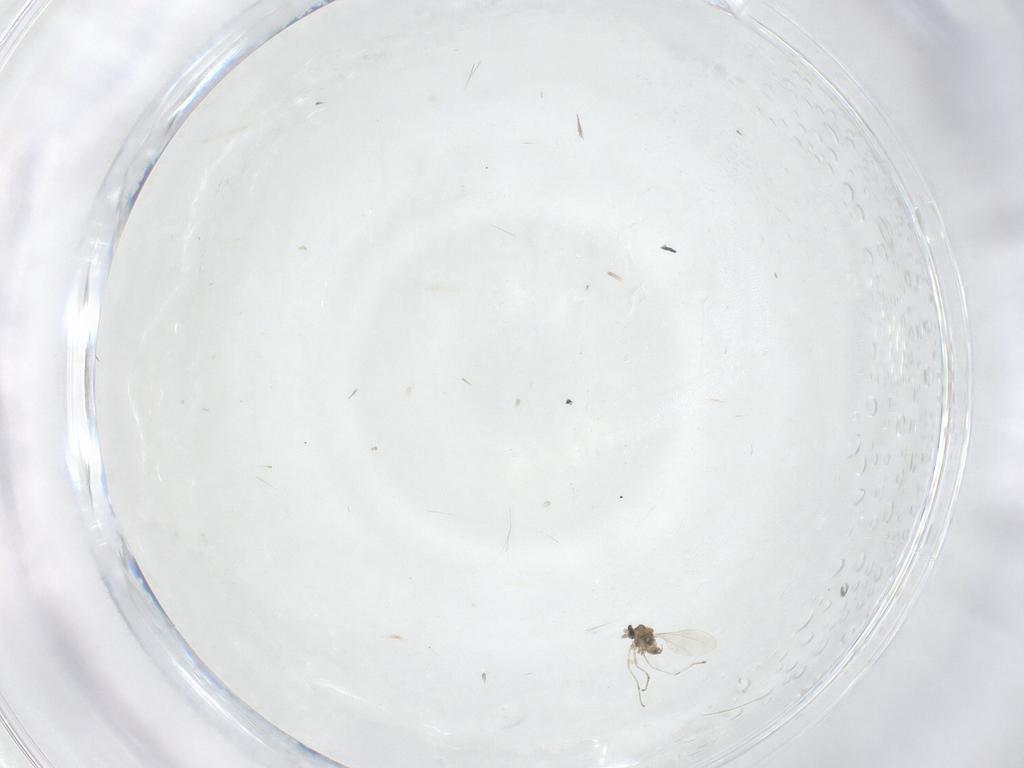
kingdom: Animalia
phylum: Arthropoda
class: Insecta
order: Diptera
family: Cecidomyiidae
